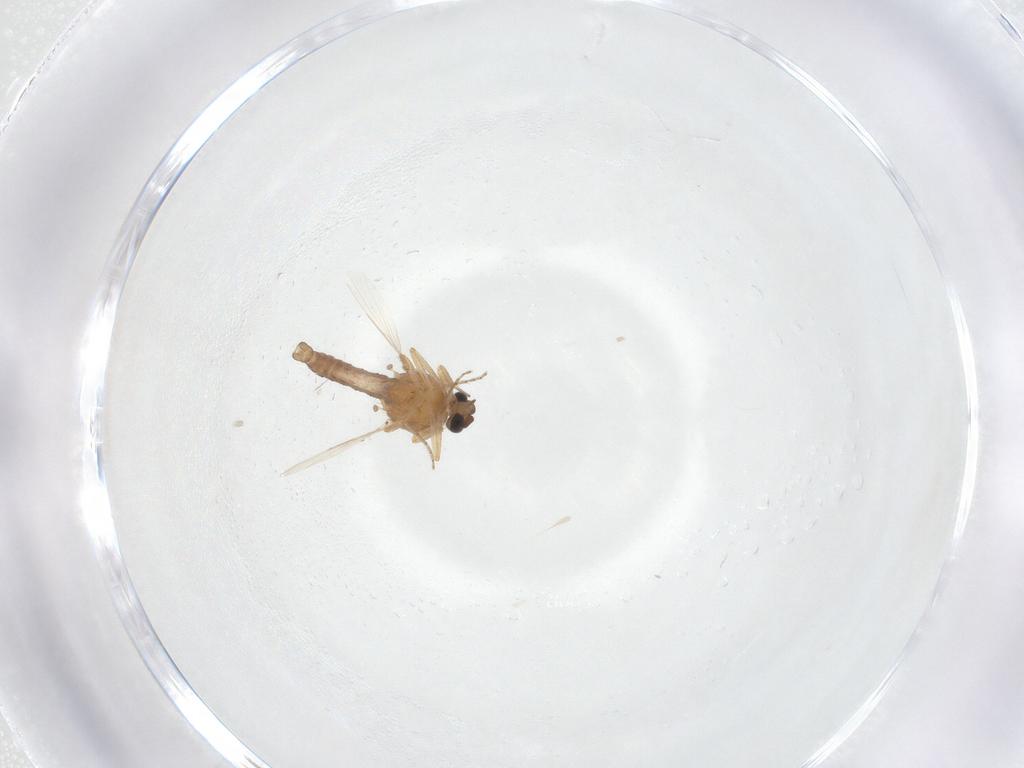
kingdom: Animalia
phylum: Arthropoda
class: Insecta
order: Diptera
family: Ceratopogonidae
